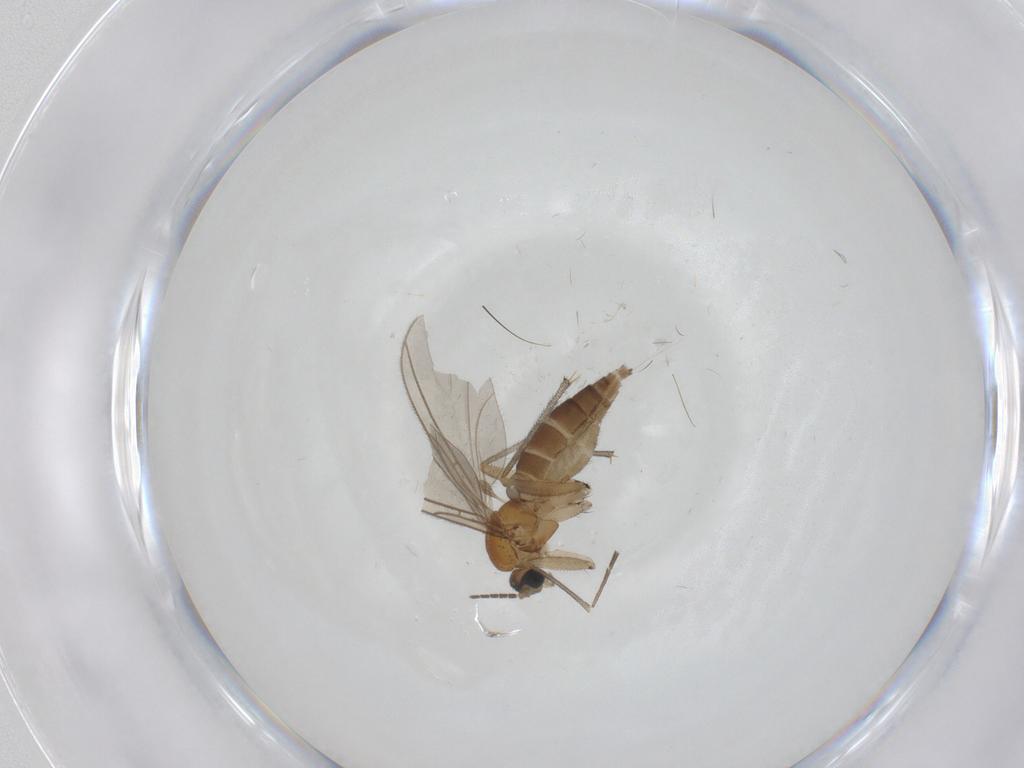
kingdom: Animalia
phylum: Arthropoda
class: Insecta
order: Diptera
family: Sciaridae
